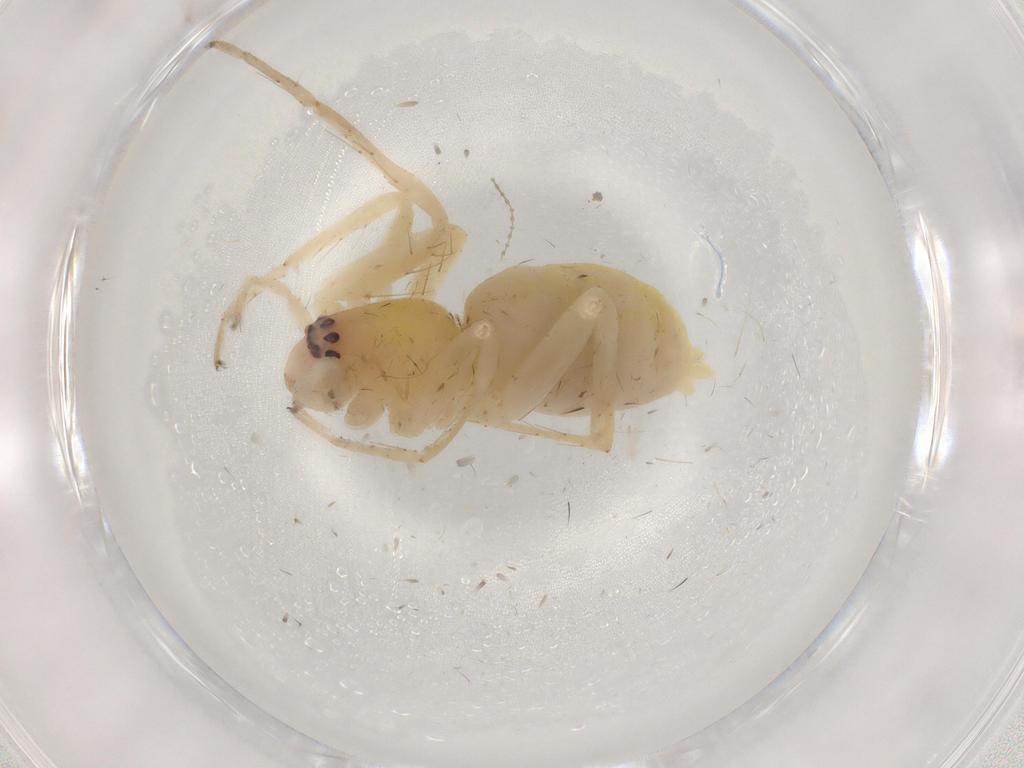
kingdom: Animalia
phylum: Arthropoda
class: Arachnida
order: Araneae
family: Anyphaenidae
